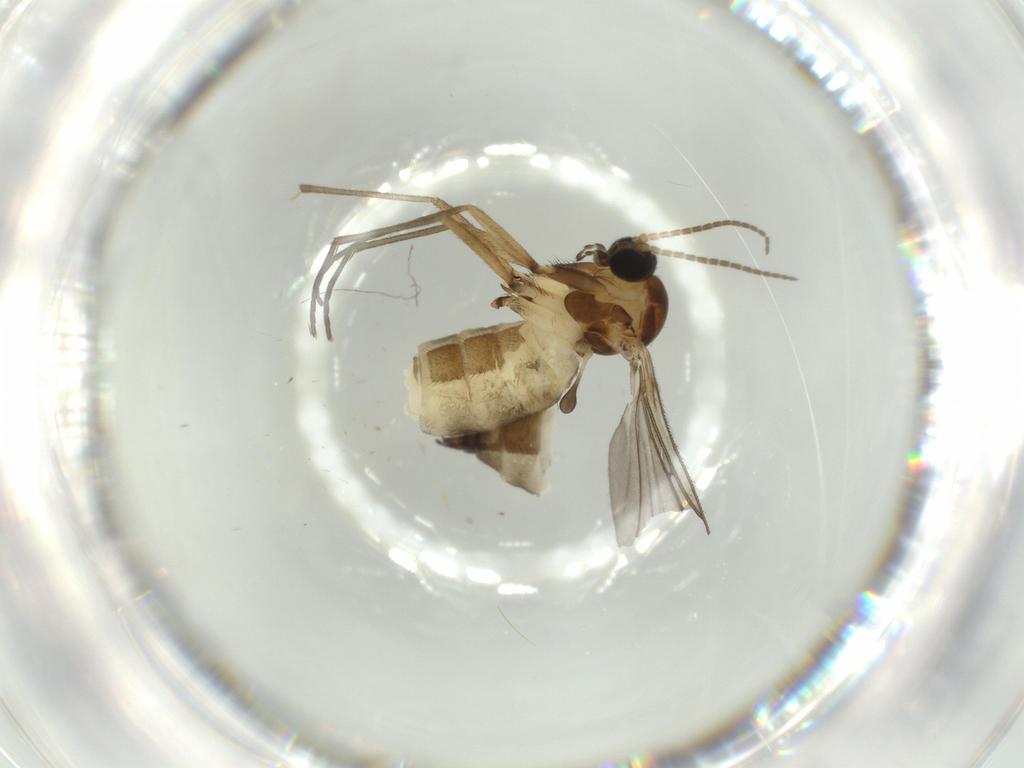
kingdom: Animalia
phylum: Arthropoda
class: Insecta
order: Diptera
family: Sciaridae
